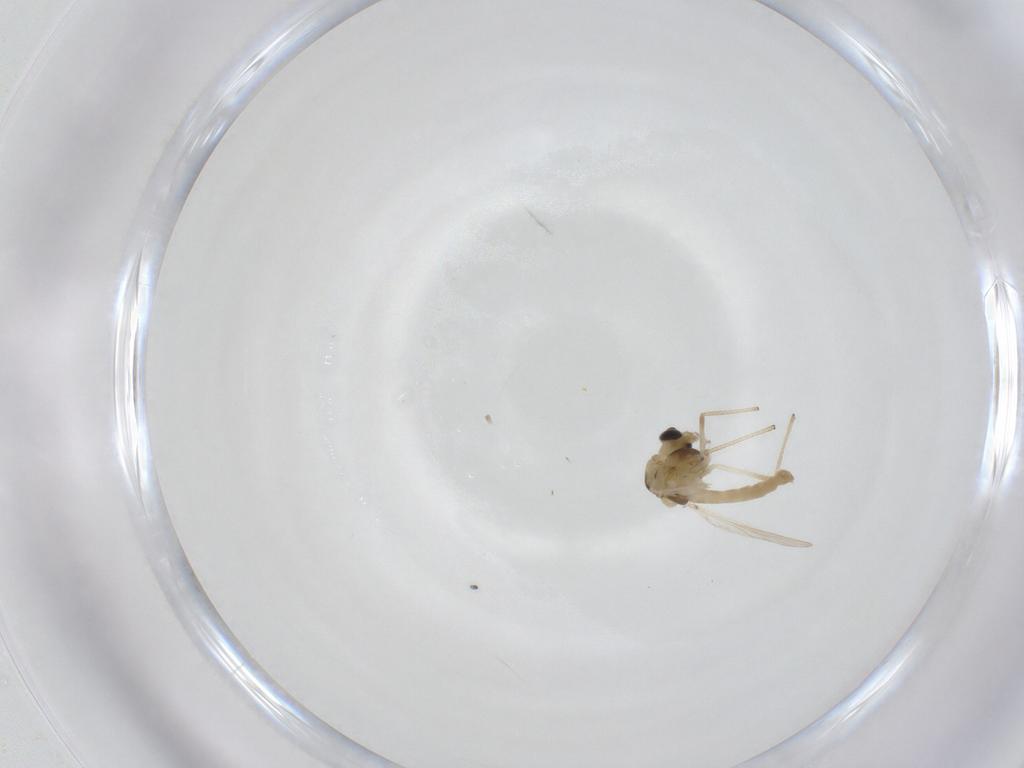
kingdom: Animalia
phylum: Arthropoda
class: Insecta
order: Diptera
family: Chironomidae
